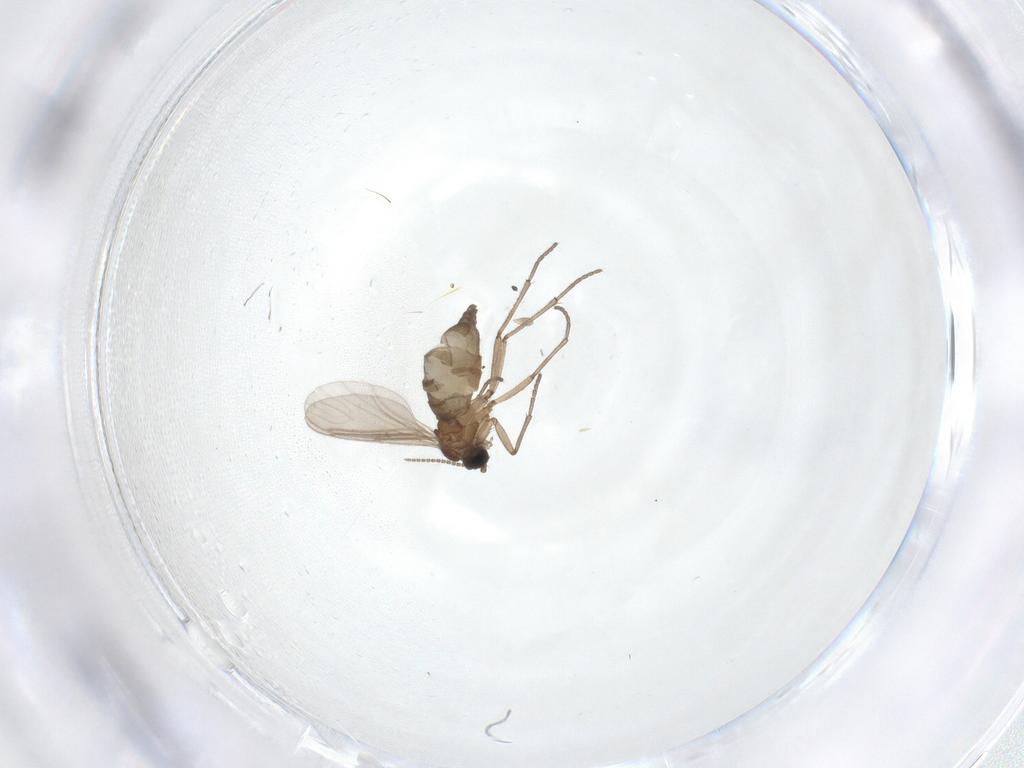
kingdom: Animalia
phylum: Arthropoda
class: Insecta
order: Diptera
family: Sciaridae
